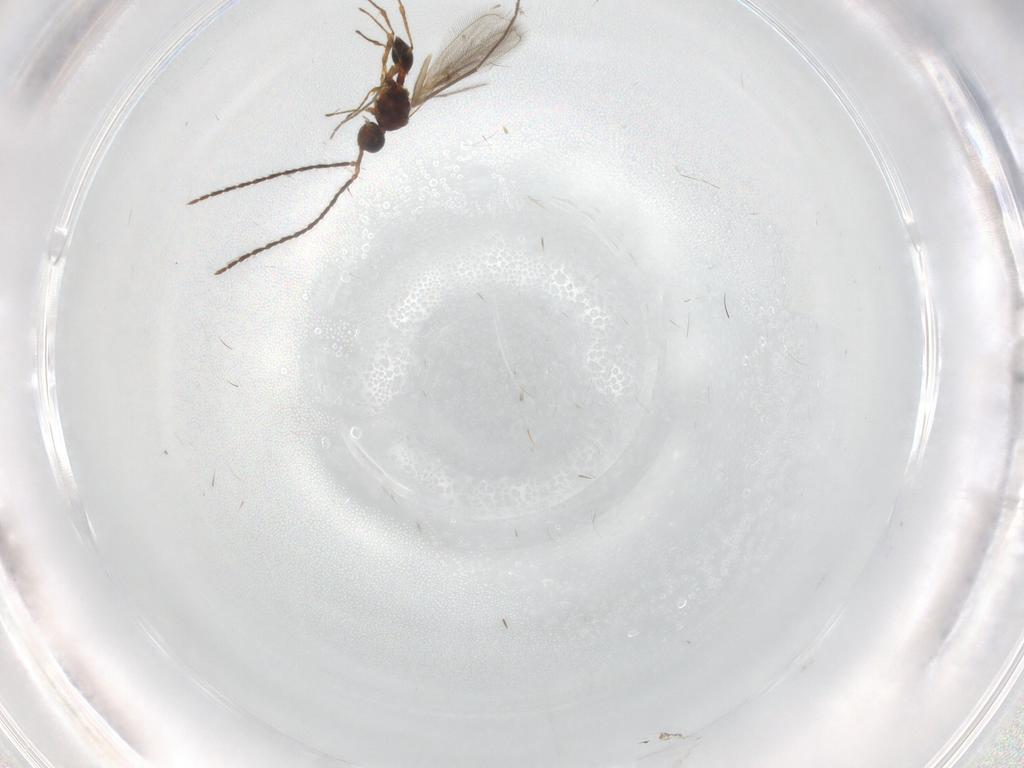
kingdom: Animalia
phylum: Arthropoda
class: Insecta
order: Hymenoptera
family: Diapriidae
